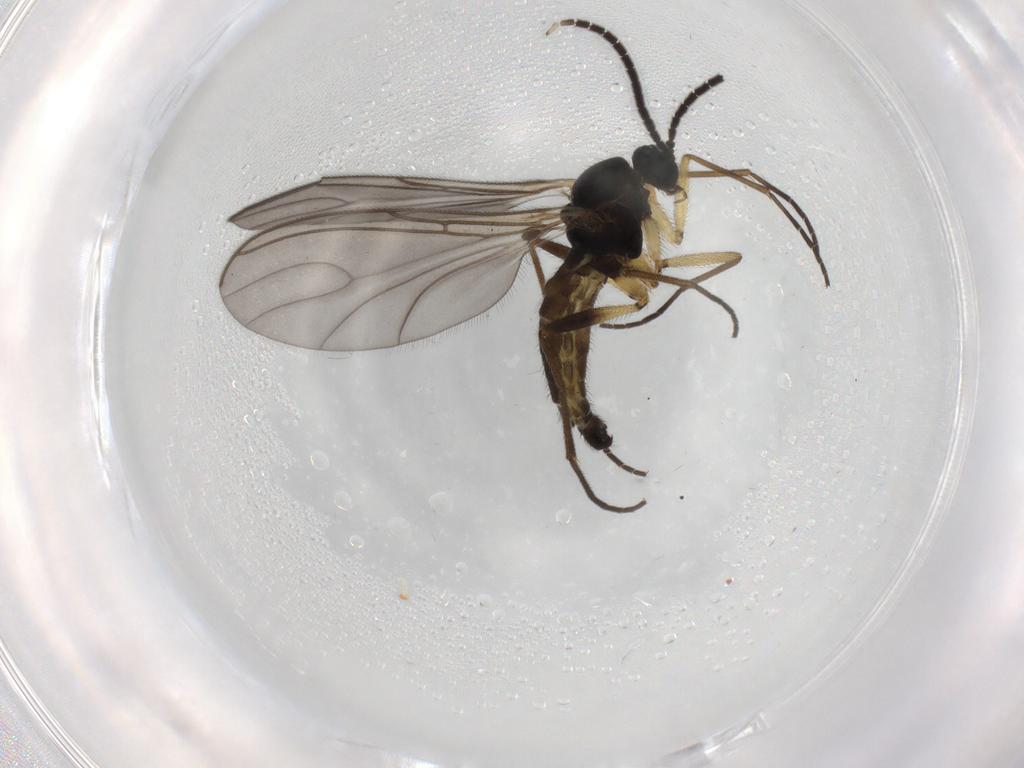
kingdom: Animalia
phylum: Arthropoda
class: Insecta
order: Diptera
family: Sciaridae
